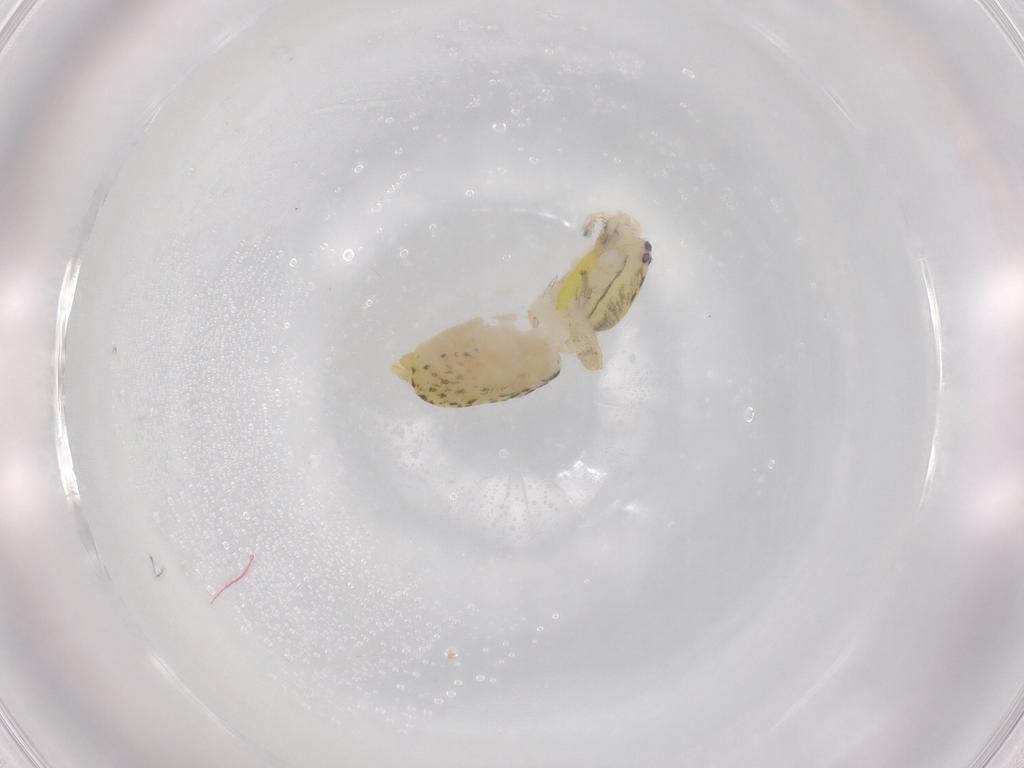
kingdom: Animalia
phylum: Arthropoda
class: Arachnida
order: Araneae
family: Anyphaenidae
